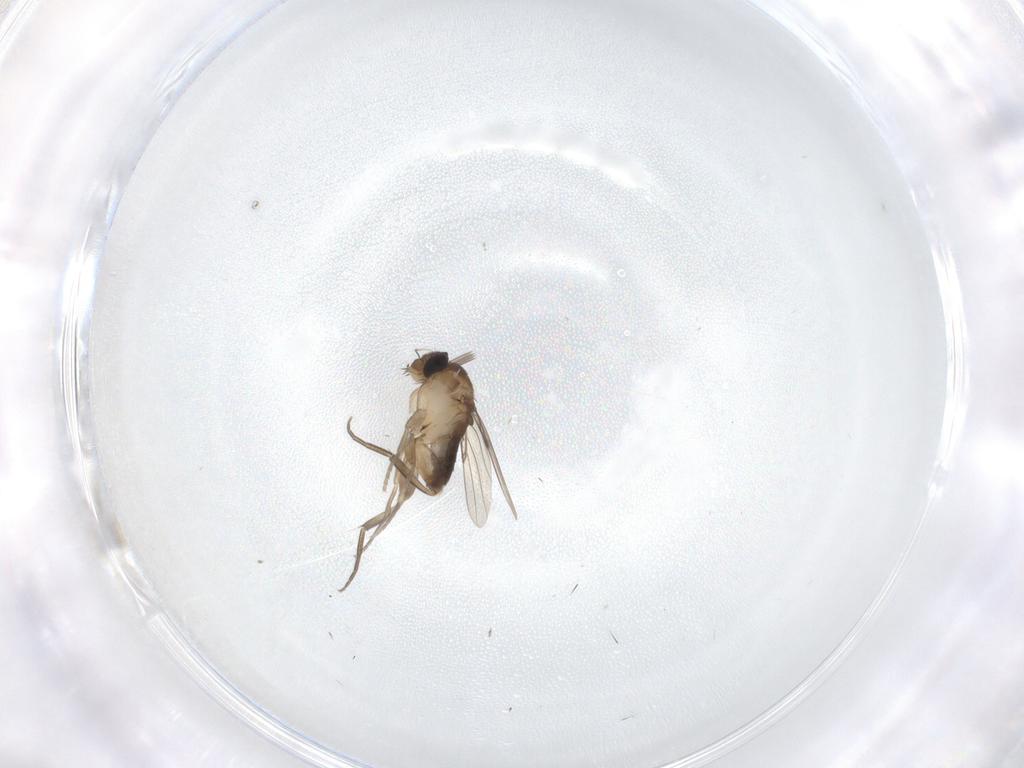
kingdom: Animalia
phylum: Arthropoda
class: Insecta
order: Diptera
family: Phoridae
